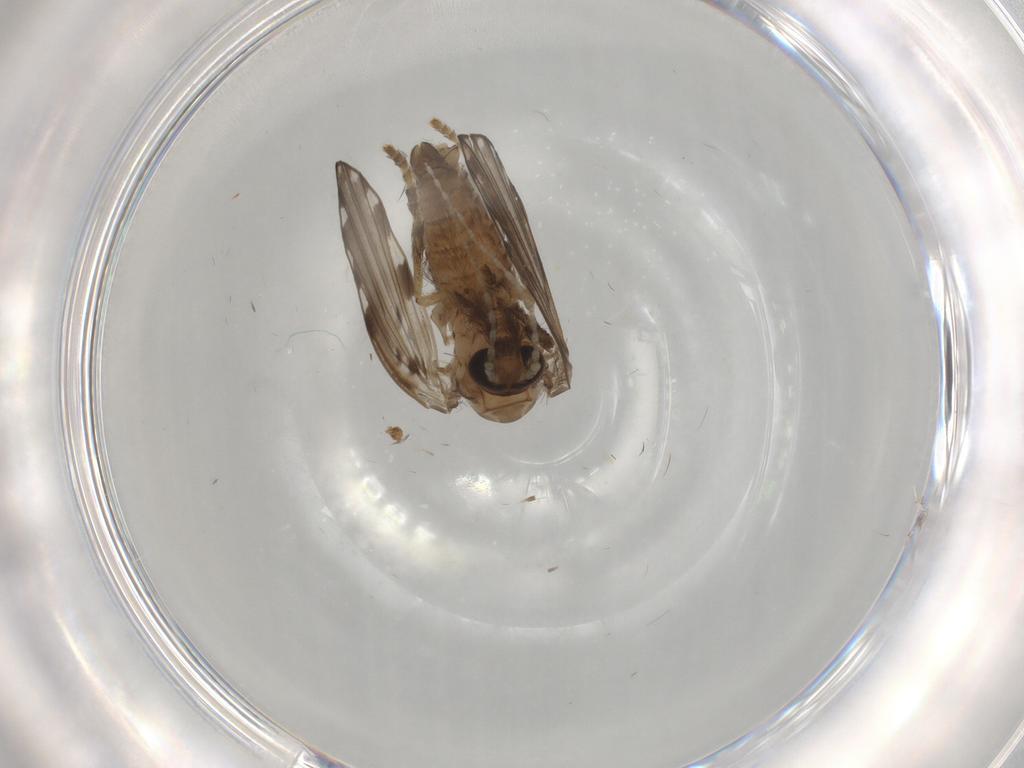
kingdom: Animalia
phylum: Arthropoda
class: Insecta
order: Diptera
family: Psychodidae
